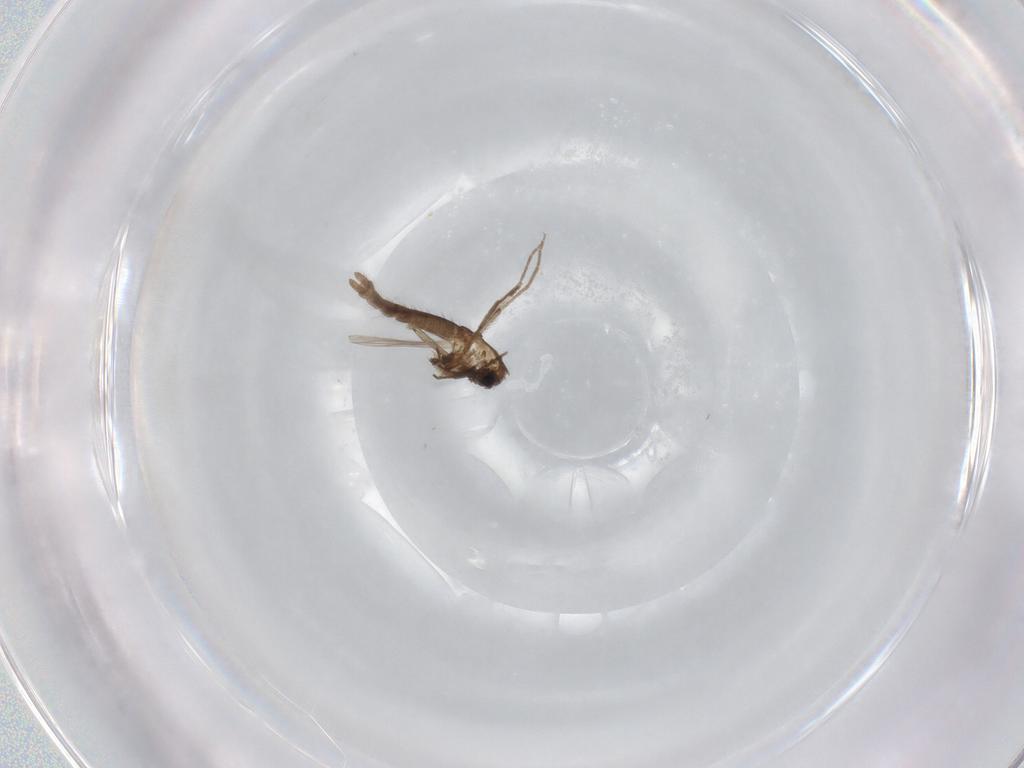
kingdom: Animalia
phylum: Arthropoda
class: Insecta
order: Diptera
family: Chironomidae
